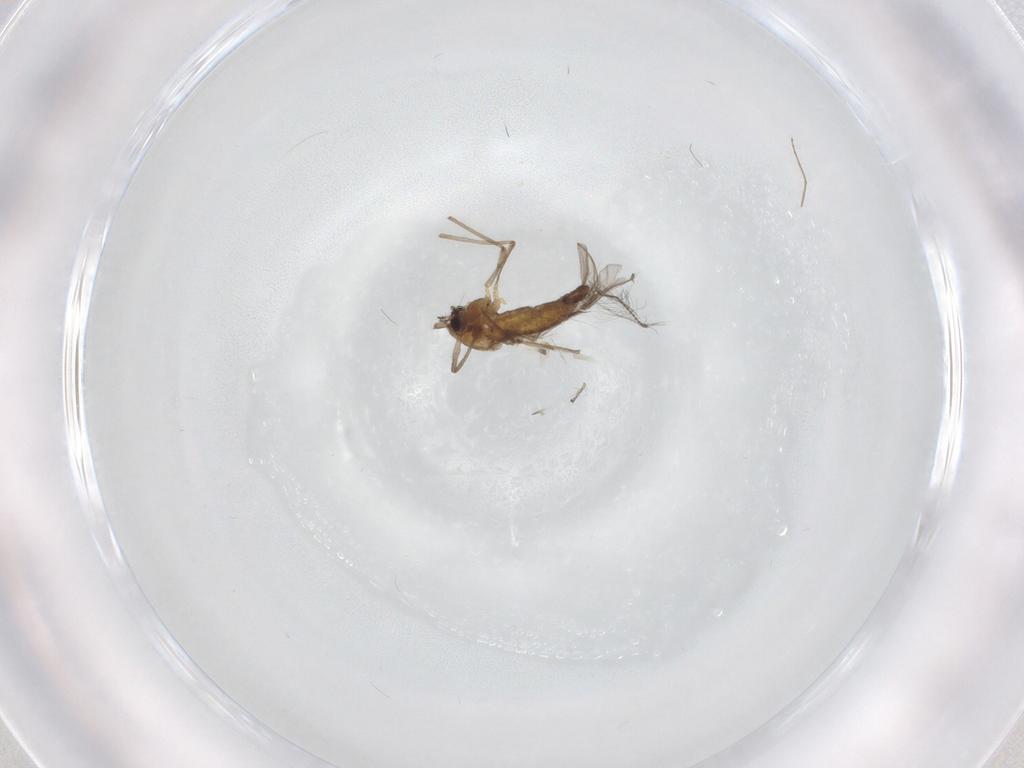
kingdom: Animalia
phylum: Arthropoda
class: Insecta
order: Diptera
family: Chironomidae
